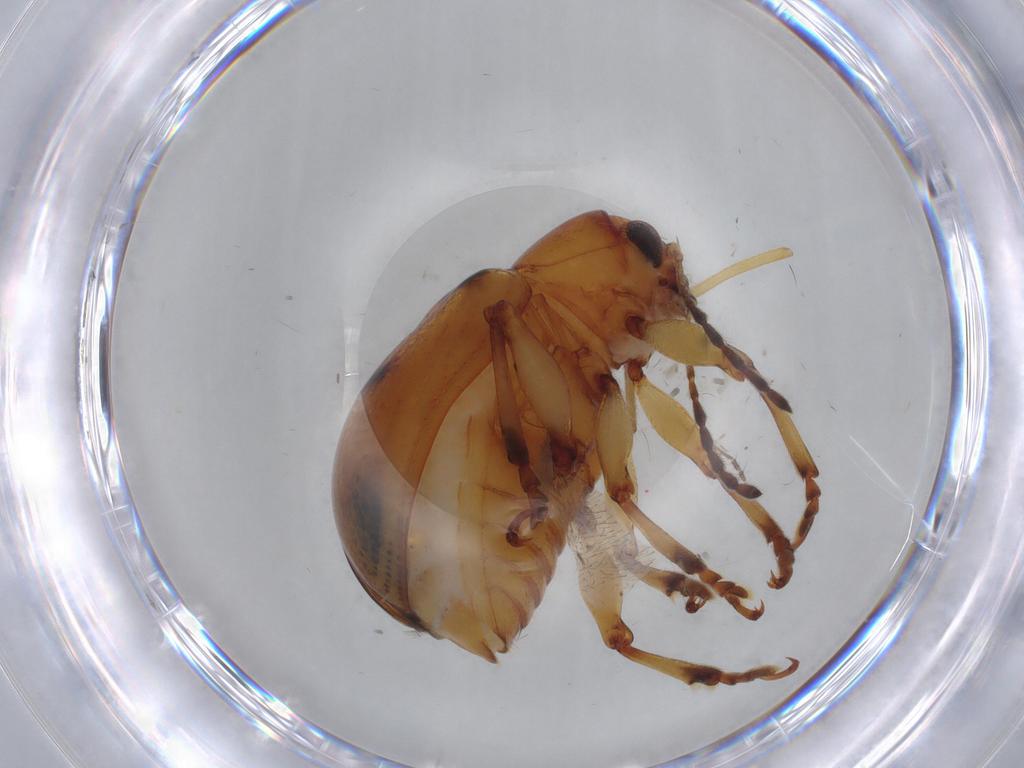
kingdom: Animalia
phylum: Arthropoda
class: Insecta
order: Coleoptera
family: Chrysomelidae
